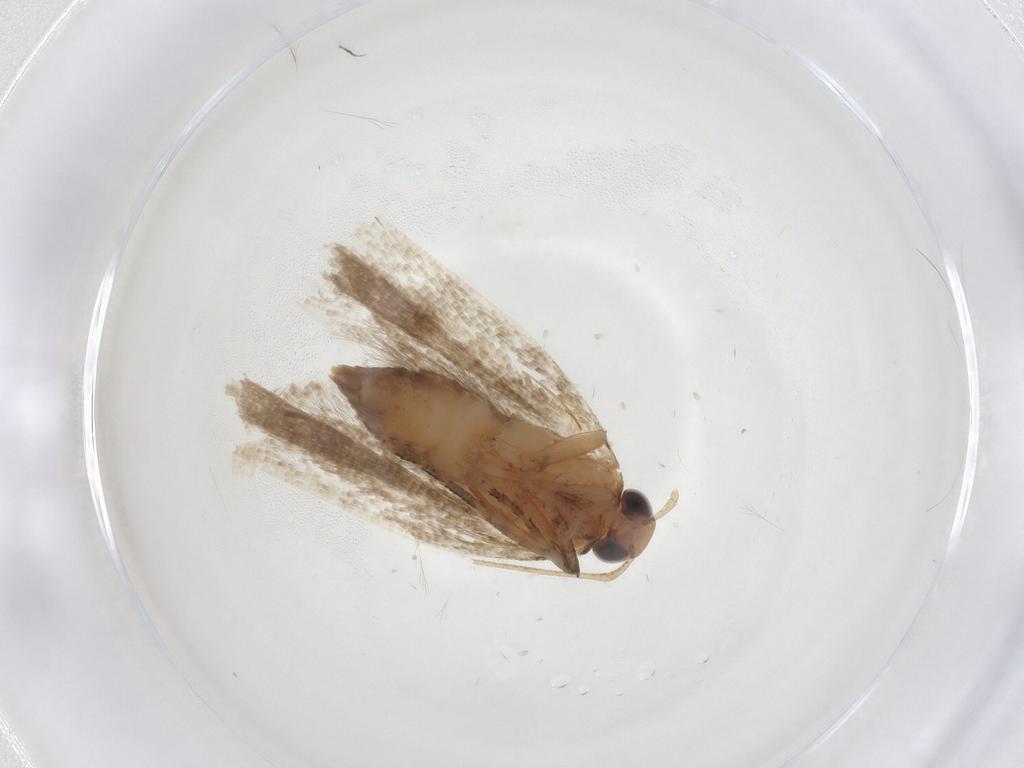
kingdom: Animalia
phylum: Arthropoda
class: Insecta
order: Lepidoptera
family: Gelechiidae
